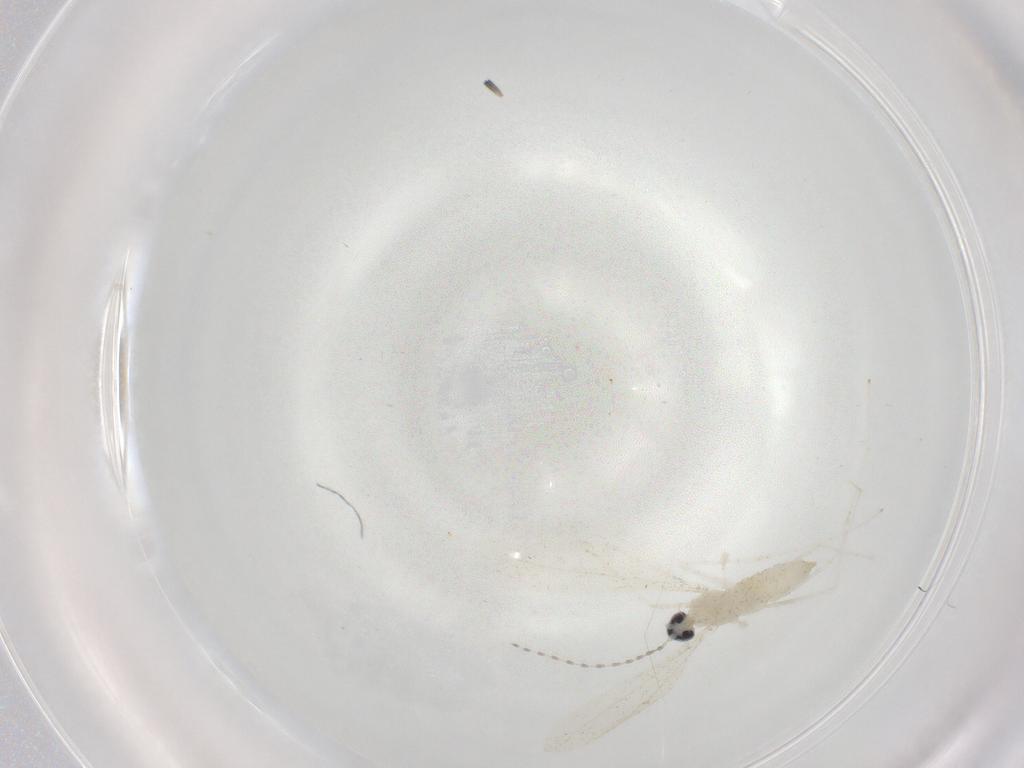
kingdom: Animalia
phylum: Arthropoda
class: Insecta
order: Diptera
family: Cecidomyiidae
